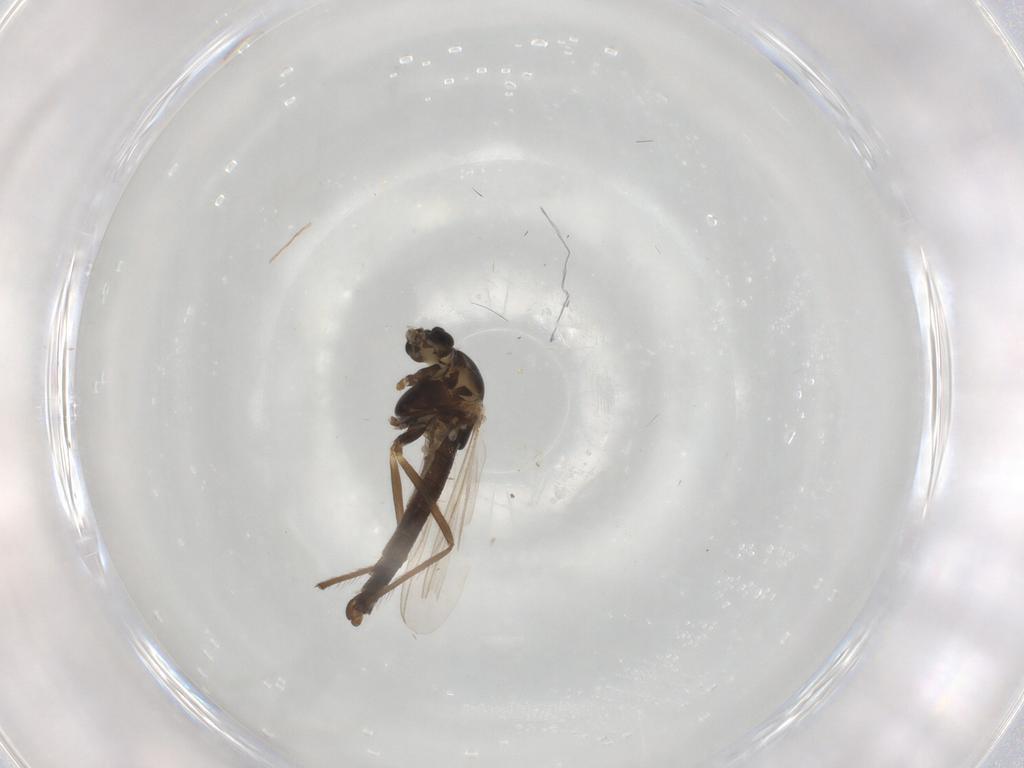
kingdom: Animalia
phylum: Arthropoda
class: Insecta
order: Diptera
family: Chironomidae
